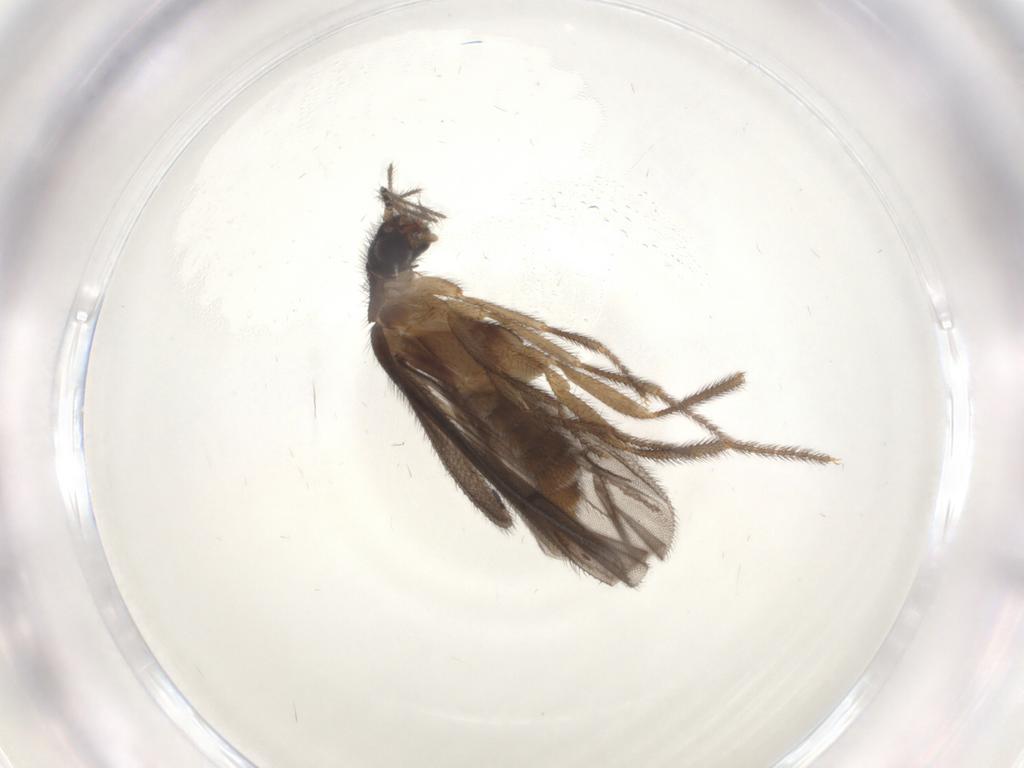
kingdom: Animalia
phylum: Arthropoda
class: Insecta
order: Coleoptera
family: Phengodidae
